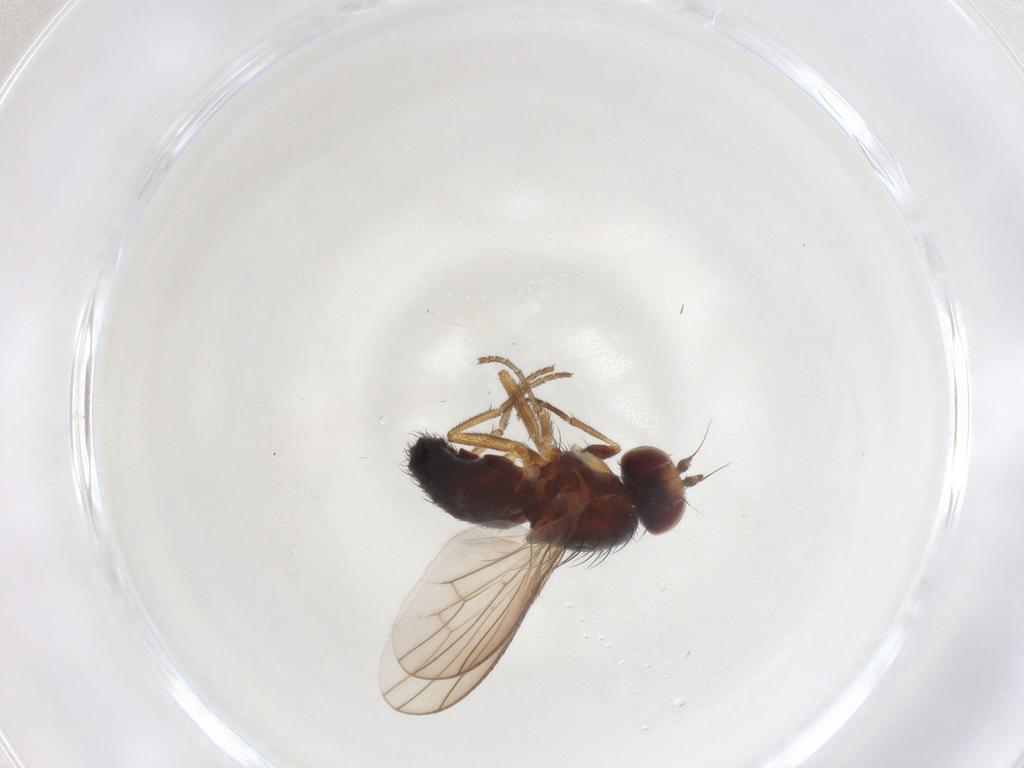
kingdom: Animalia
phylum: Arthropoda
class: Insecta
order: Diptera
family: Heleomyzidae
